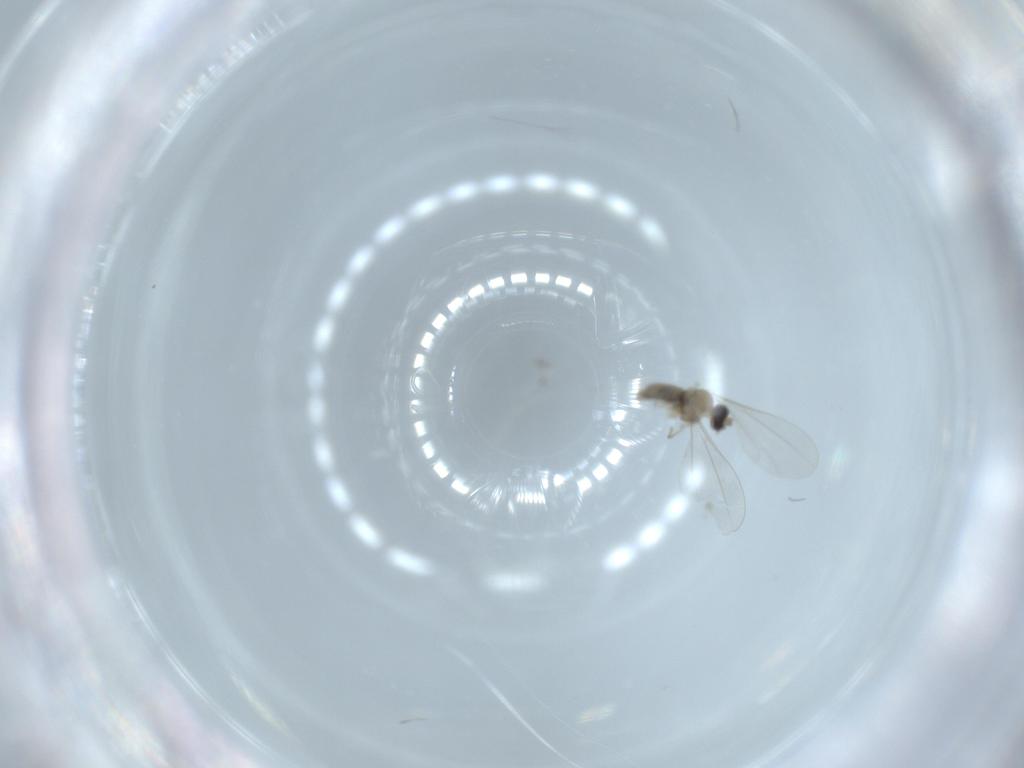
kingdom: Animalia
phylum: Arthropoda
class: Insecta
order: Diptera
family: Cecidomyiidae
